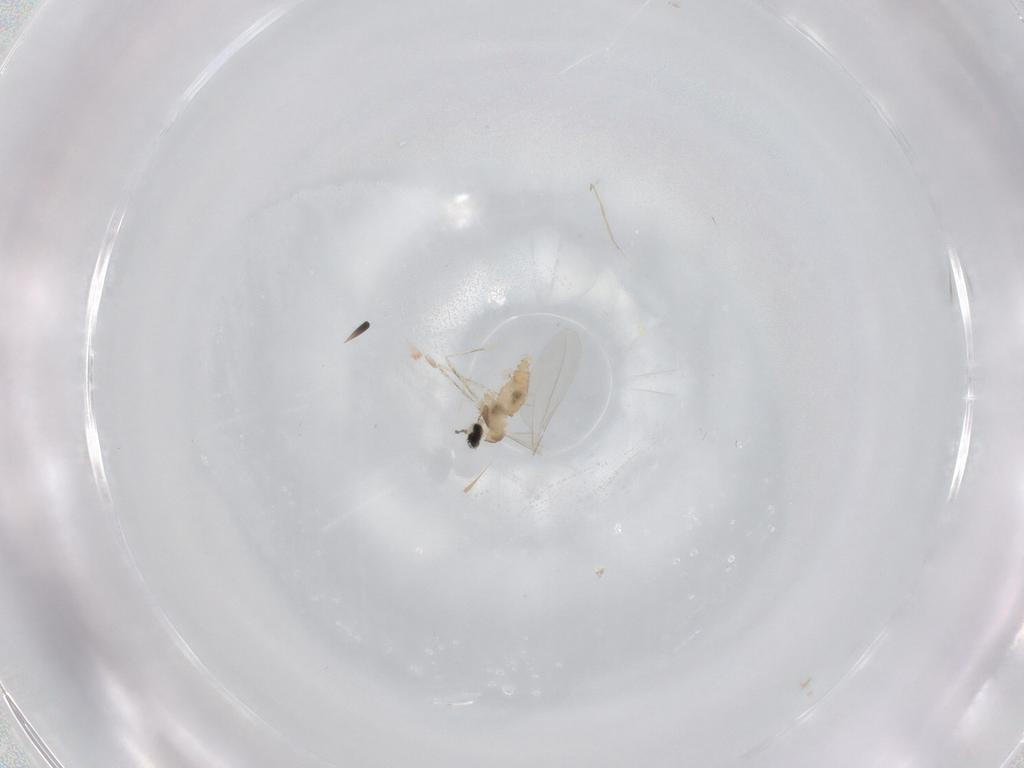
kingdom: Animalia
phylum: Arthropoda
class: Insecta
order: Diptera
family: Cecidomyiidae
